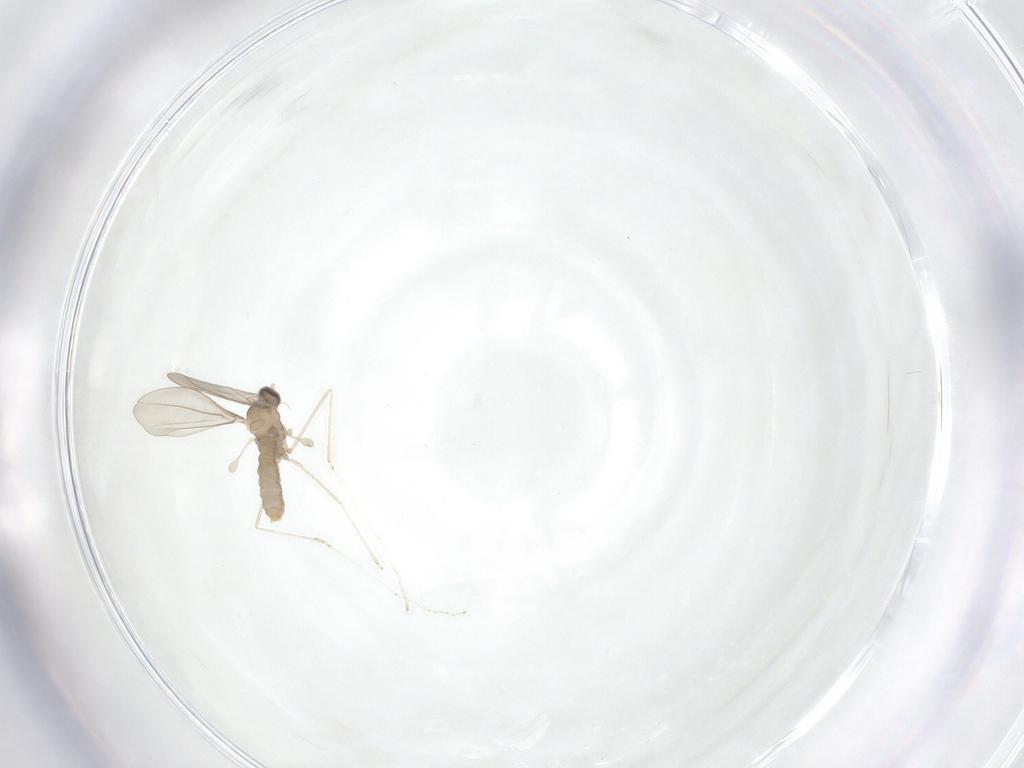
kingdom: Animalia
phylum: Arthropoda
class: Insecta
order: Diptera
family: Cecidomyiidae
